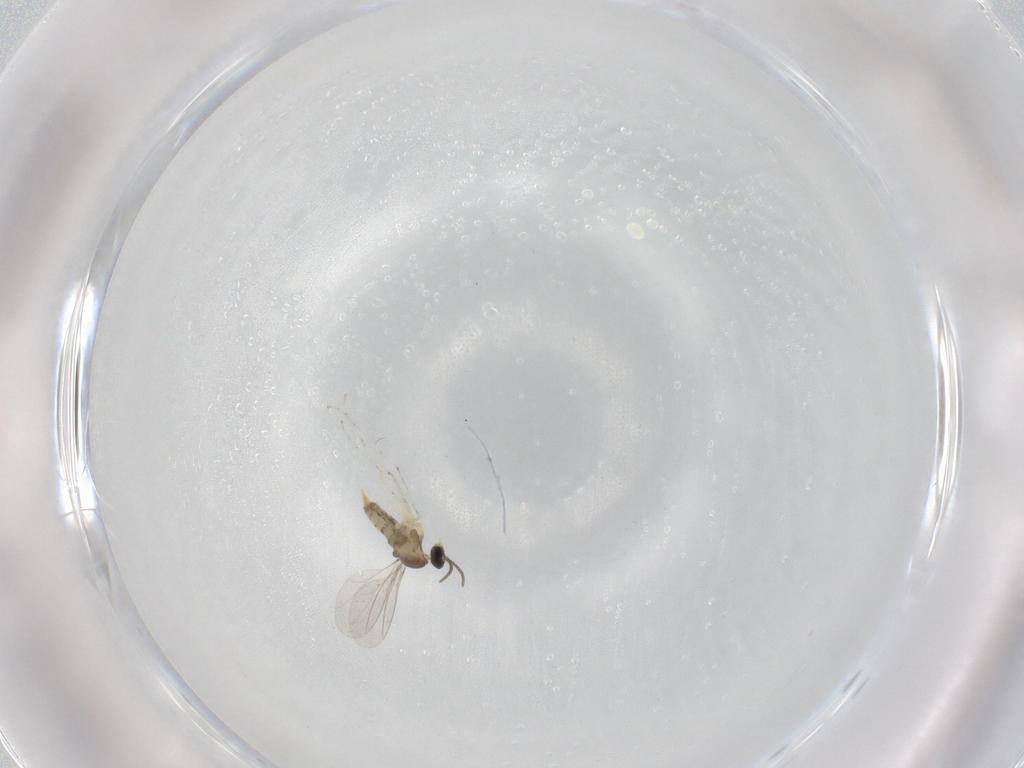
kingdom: Animalia
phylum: Arthropoda
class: Insecta
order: Diptera
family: Cecidomyiidae
